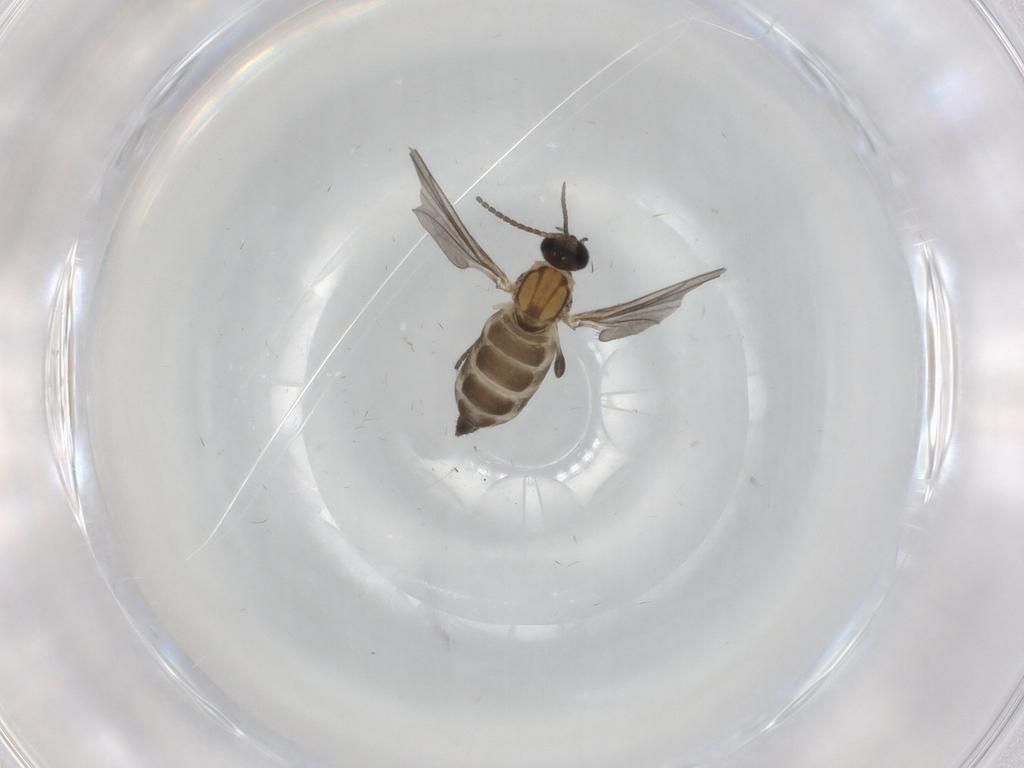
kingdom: Animalia
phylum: Arthropoda
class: Insecta
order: Diptera
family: Sciaridae
